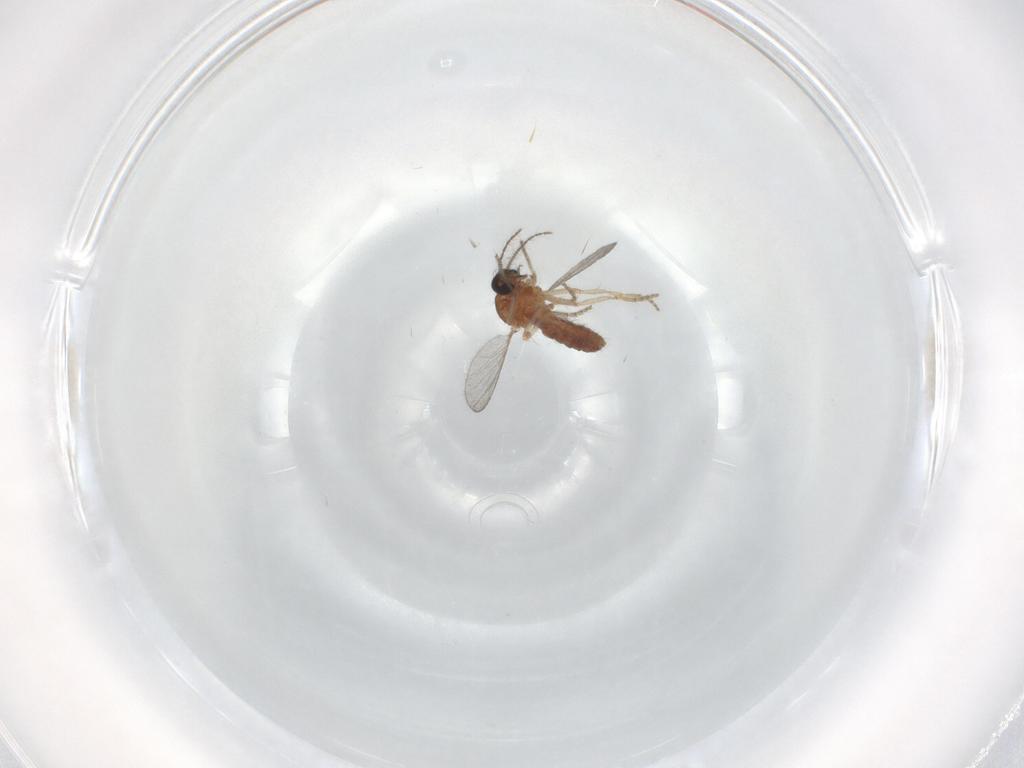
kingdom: Animalia
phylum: Arthropoda
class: Insecta
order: Diptera
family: Ceratopogonidae
